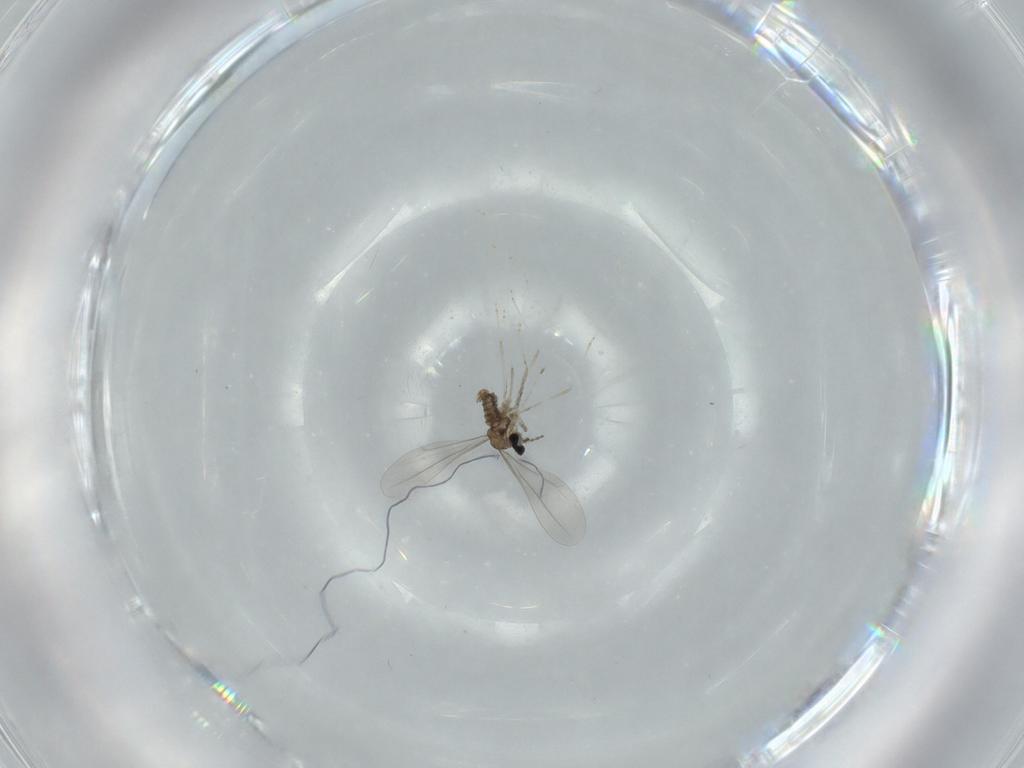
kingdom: Animalia
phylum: Arthropoda
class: Insecta
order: Diptera
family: Cecidomyiidae
